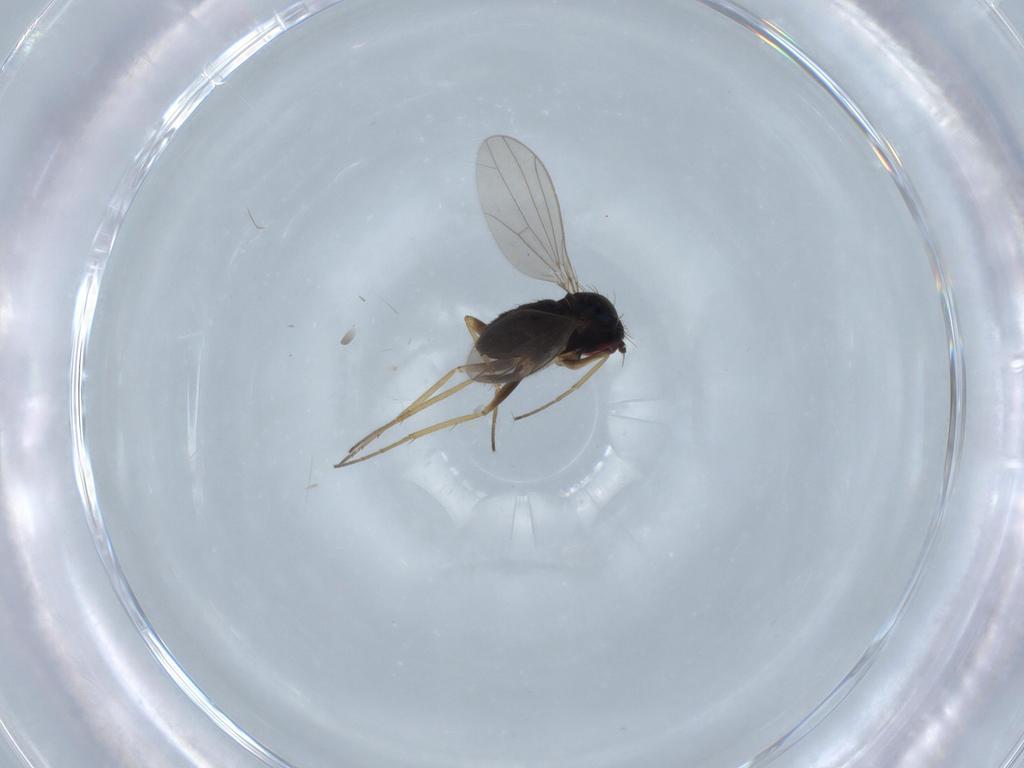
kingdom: Animalia
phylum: Arthropoda
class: Insecta
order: Diptera
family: Dolichopodidae
